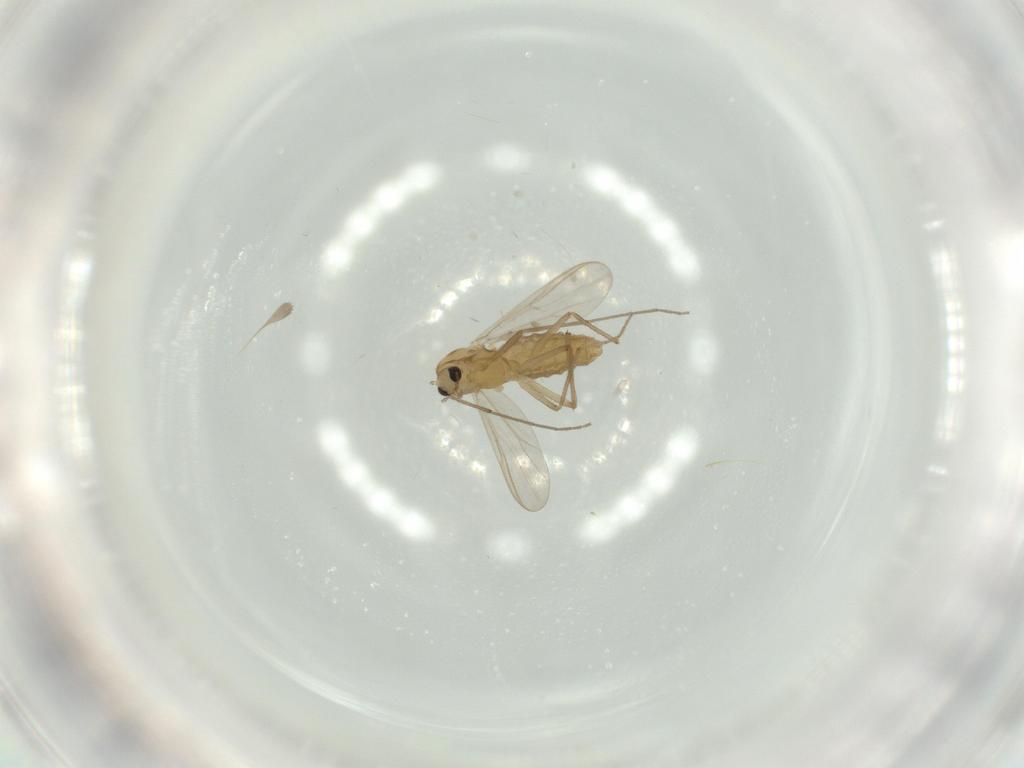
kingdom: Animalia
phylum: Arthropoda
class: Insecta
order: Diptera
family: Chironomidae
